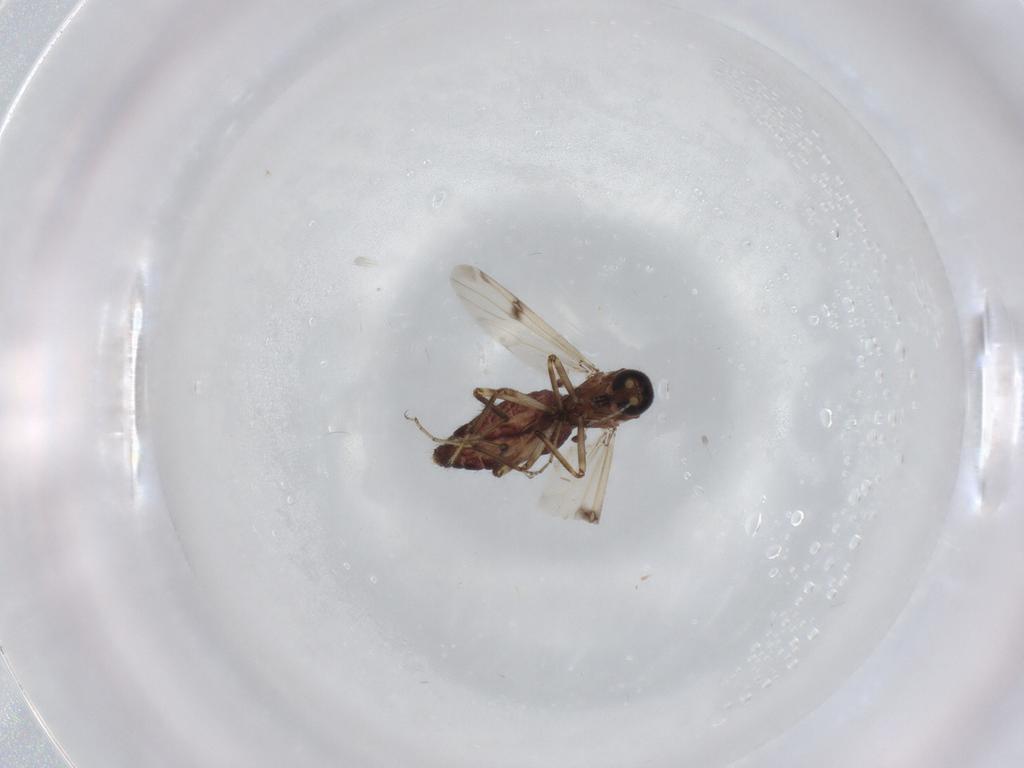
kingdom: Animalia
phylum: Arthropoda
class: Insecta
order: Diptera
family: Ceratopogonidae
